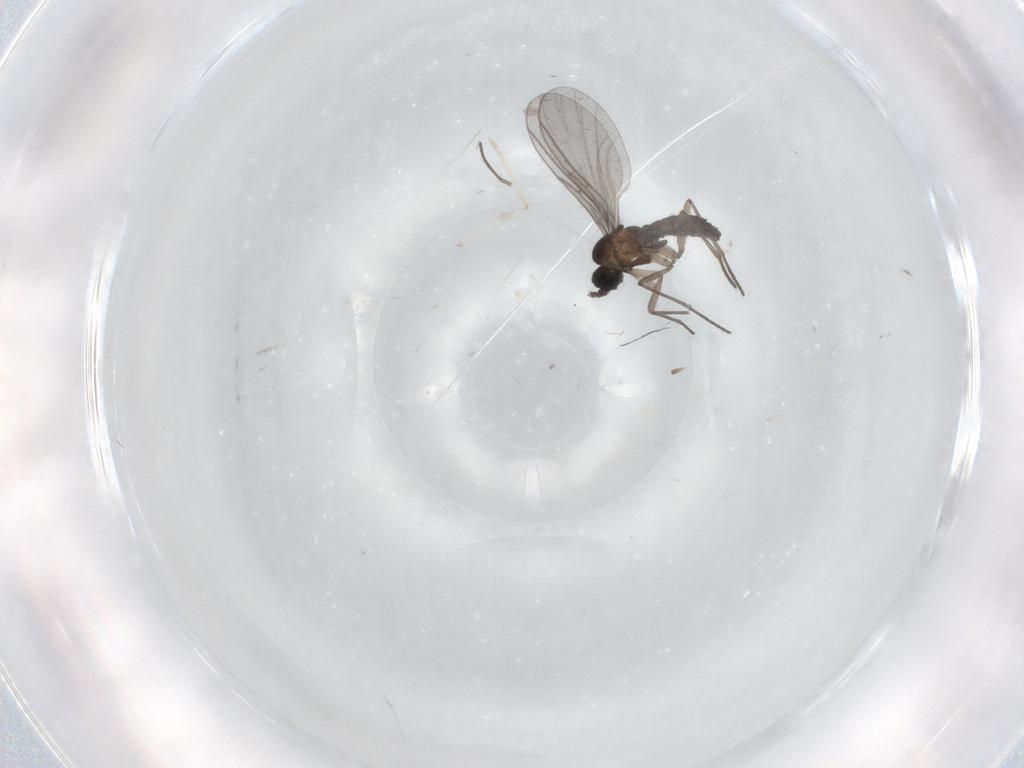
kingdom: Animalia
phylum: Arthropoda
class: Insecta
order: Diptera
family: Cecidomyiidae
